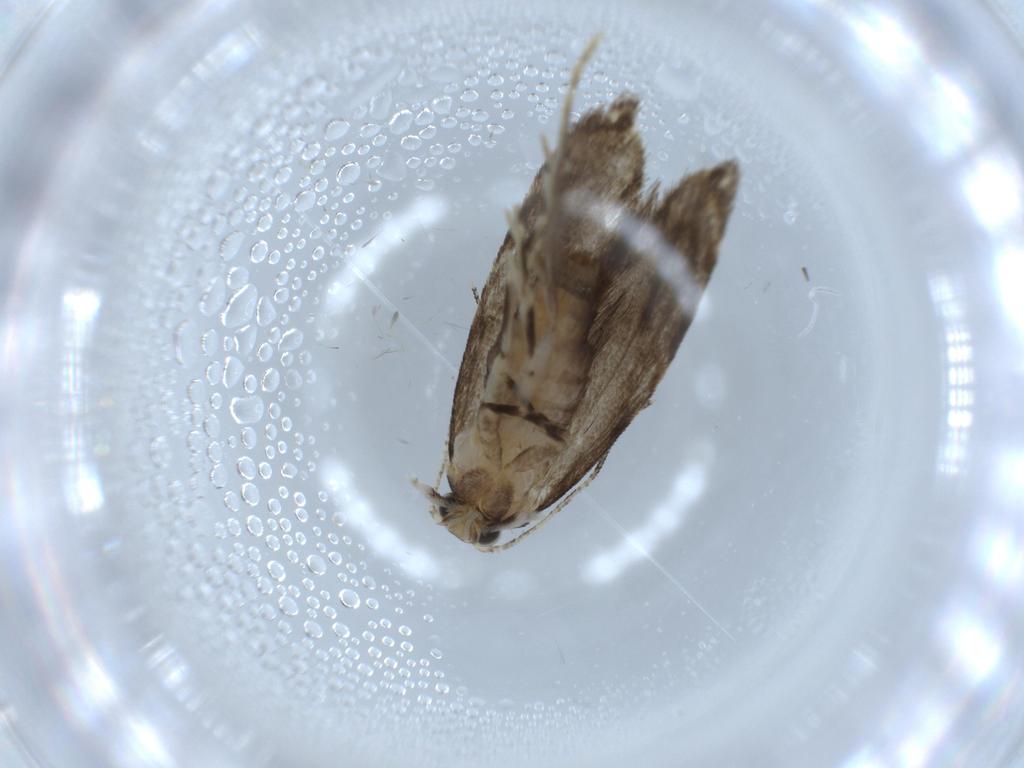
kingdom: Animalia
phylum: Arthropoda
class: Insecta
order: Lepidoptera
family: Tineidae
